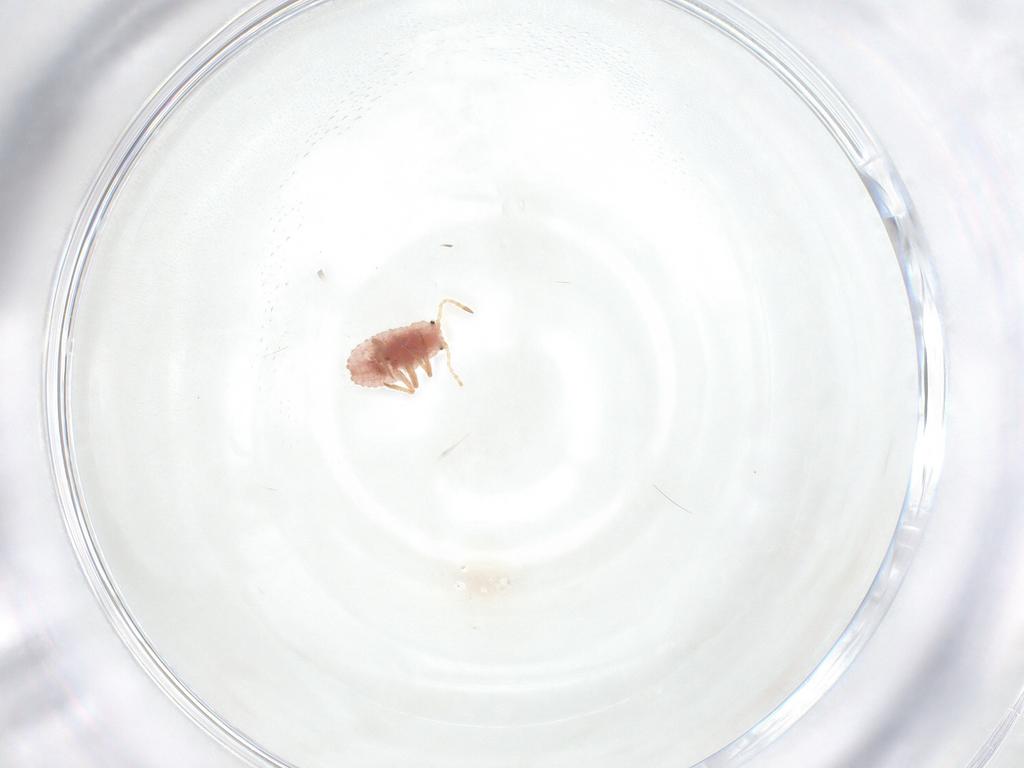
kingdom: Animalia
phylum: Arthropoda
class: Insecta
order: Hemiptera
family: Coccoidea_incertae_sedis
